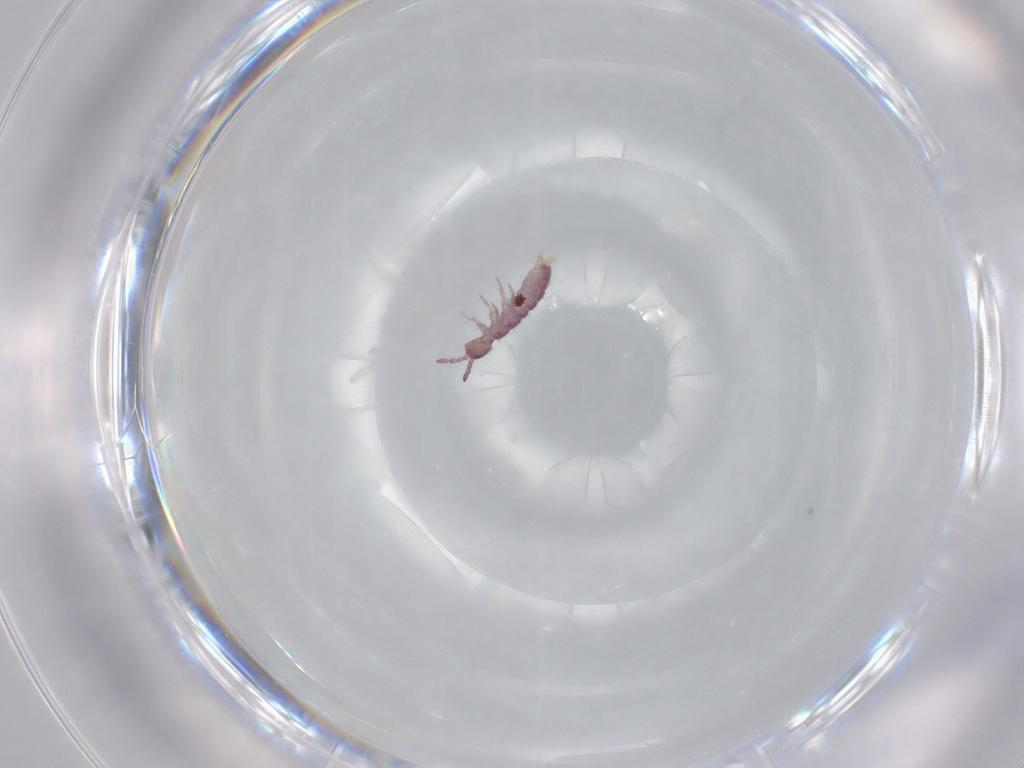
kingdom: Animalia
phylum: Arthropoda
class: Collembola
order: Entomobryomorpha
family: Isotomidae
